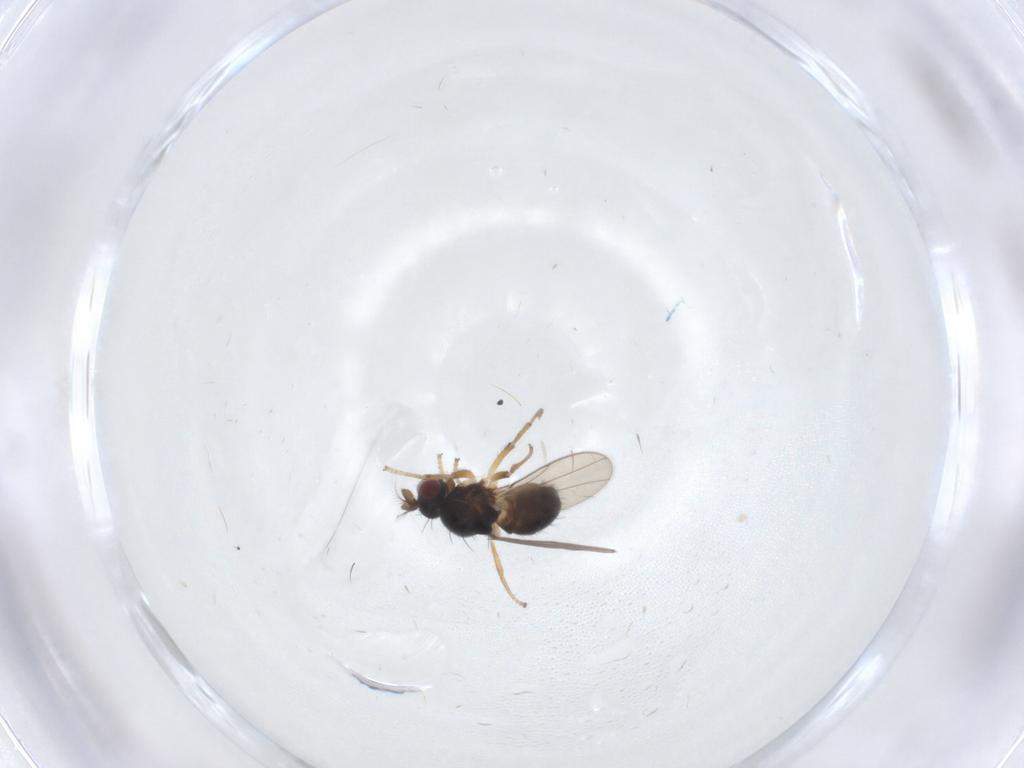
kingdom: Animalia
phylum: Arthropoda
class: Insecta
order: Diptera
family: Ephydridae
